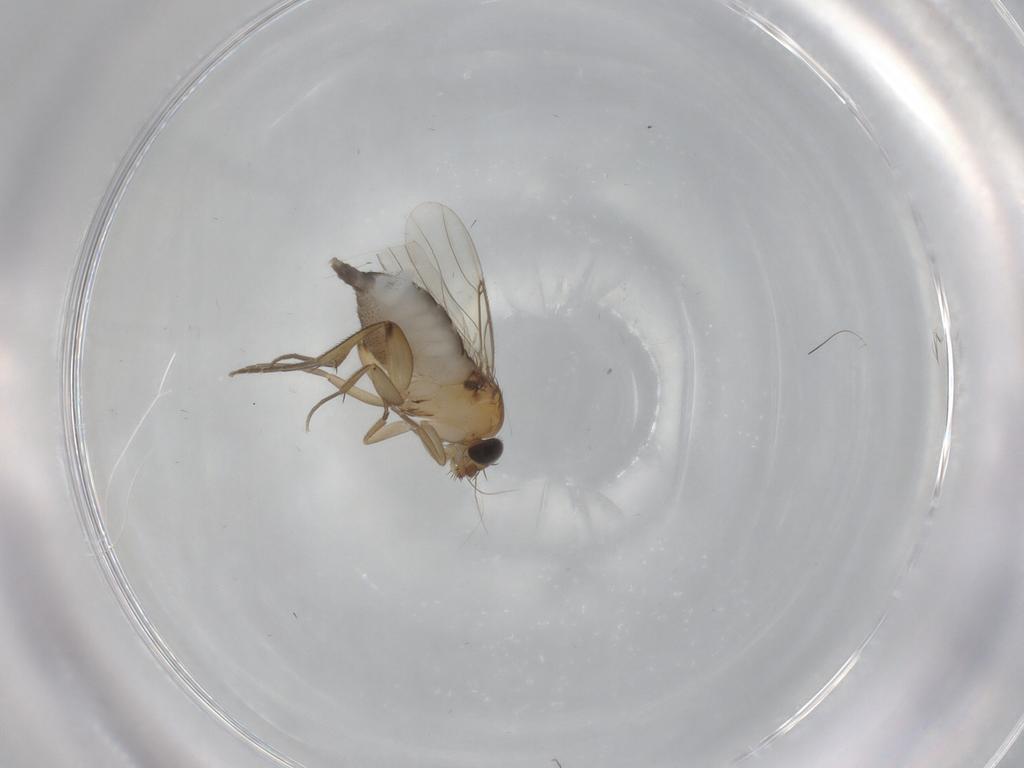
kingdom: Animalia
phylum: Arthropoda
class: Insecta
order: Diptera
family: Phoridae
